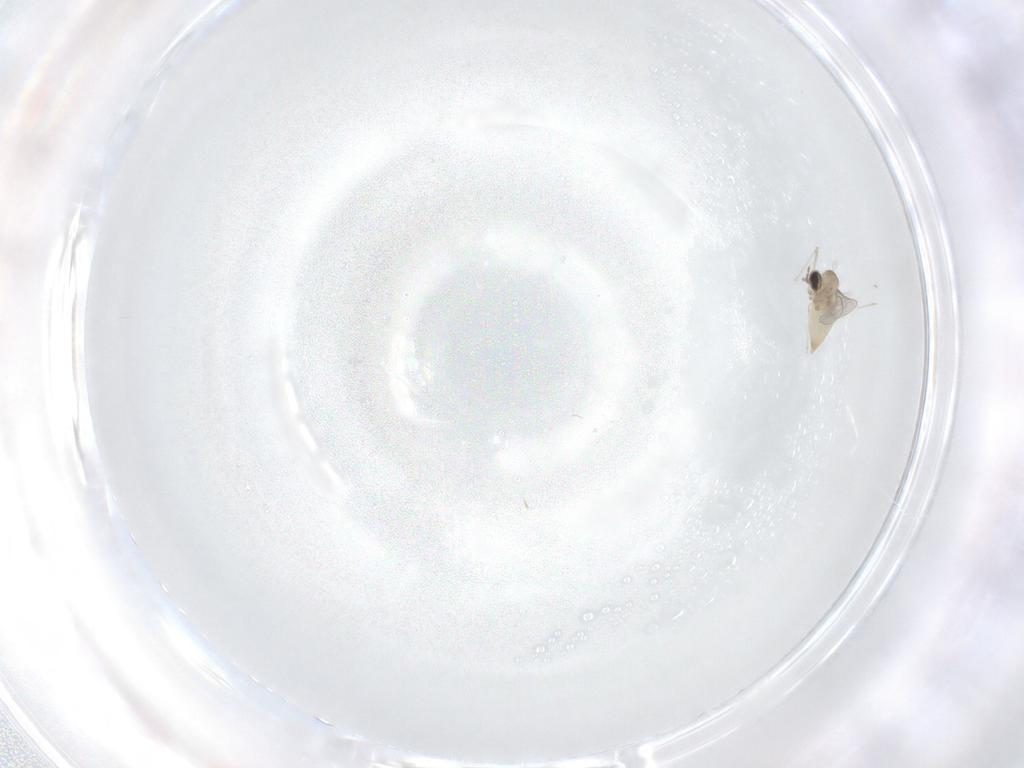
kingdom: Animalia
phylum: Arthropoda
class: Insecta
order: Diptera
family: Cecidomyiidae
